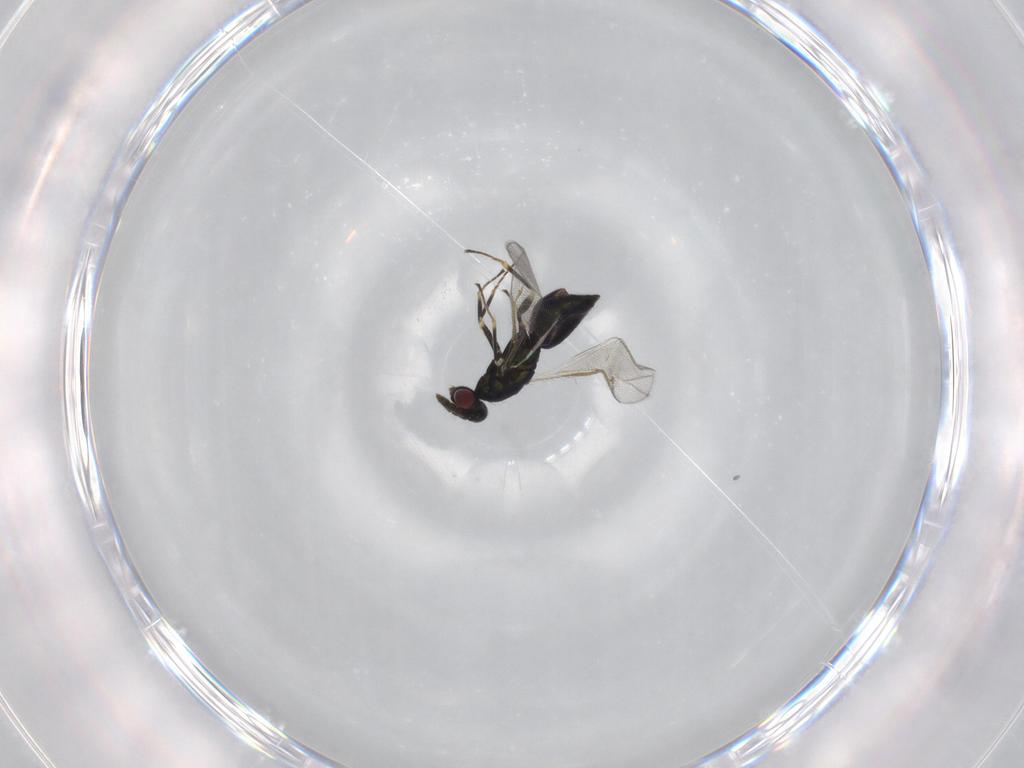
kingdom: Animalia
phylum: Arthropoda
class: Insecta
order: Hymenoptera
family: Eulophidae
